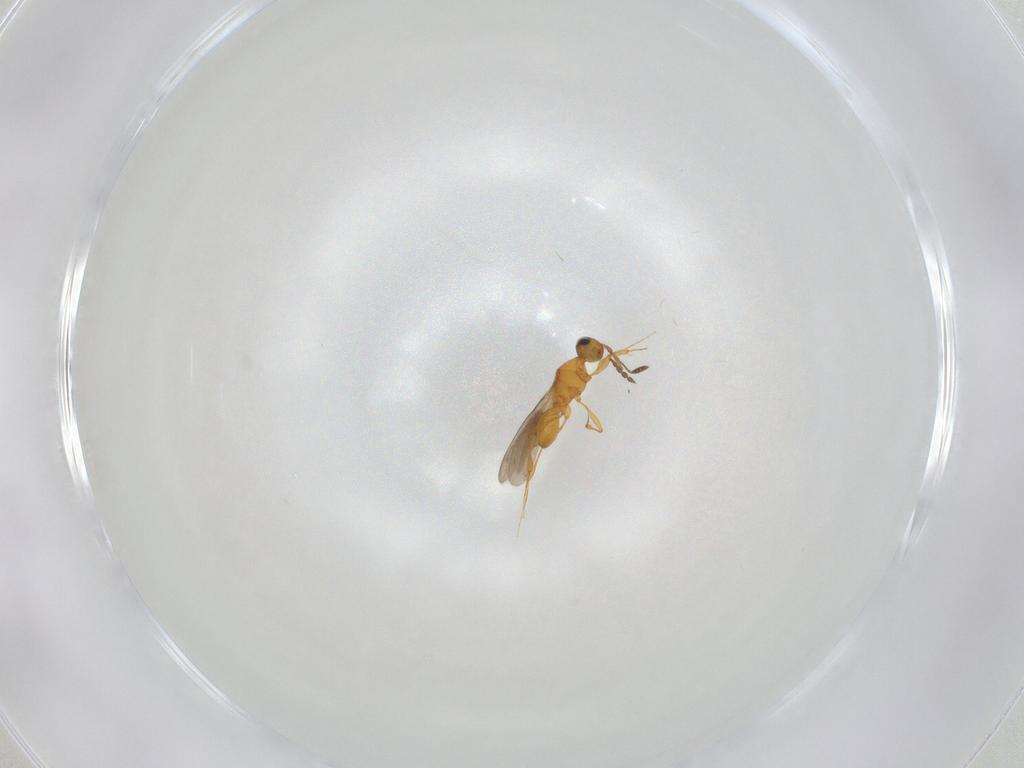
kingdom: Animalia
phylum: Arthropoda
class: Insecta
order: Hymenoptera
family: Platygastridae
